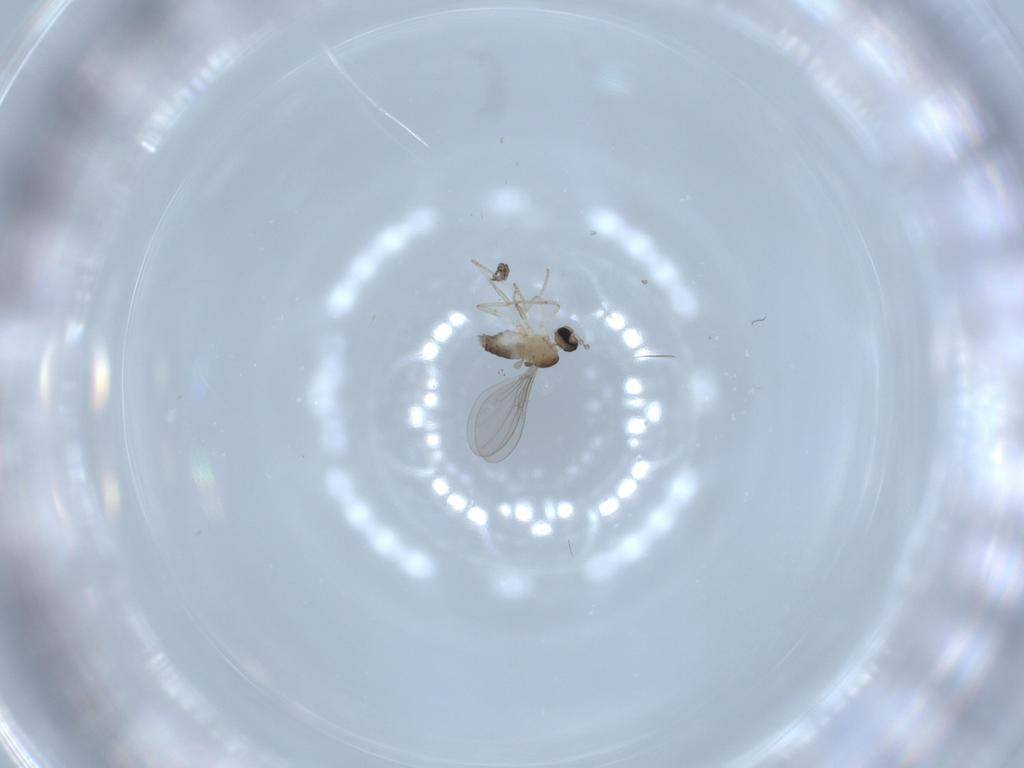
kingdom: Animalia
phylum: Arthropoda
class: Insecta
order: Diptera
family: Cecidomyiidae
